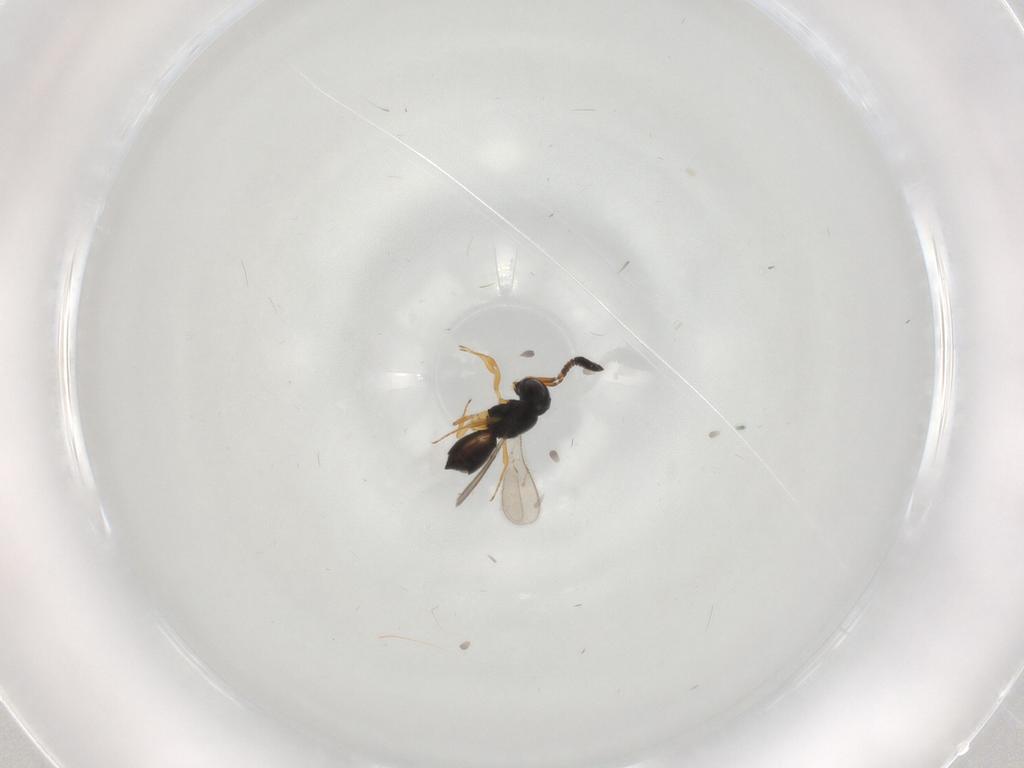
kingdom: Animalia
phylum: Arthropoda
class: Insecta
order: Hymenoptera
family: Scelionidae
